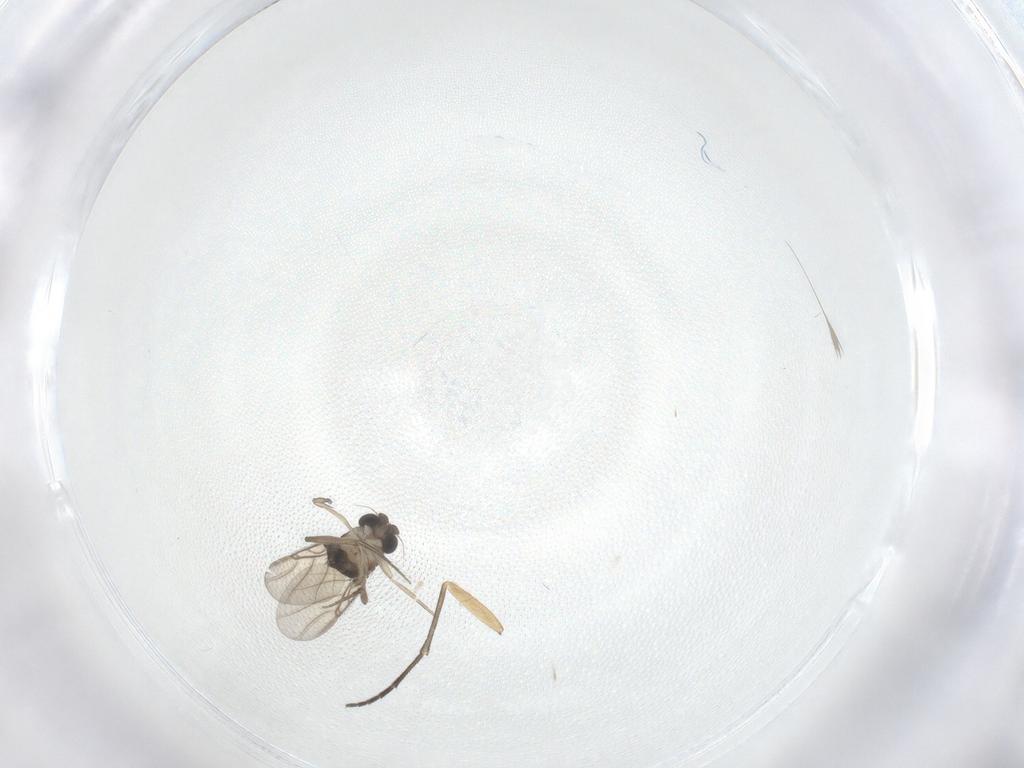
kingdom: Animalia
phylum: Arthropoda
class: Insecta
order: Diptera
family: Sciaridae
